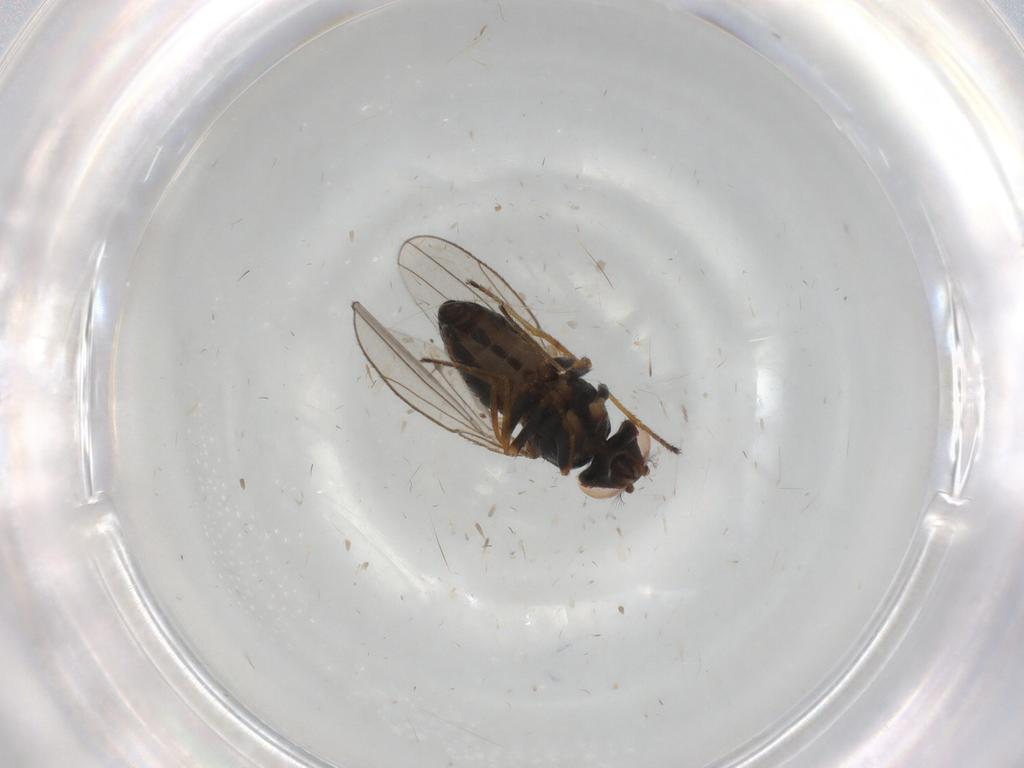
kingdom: Animalia
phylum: Arthropoda
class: Insecta
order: Diptera
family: Ephydridae
